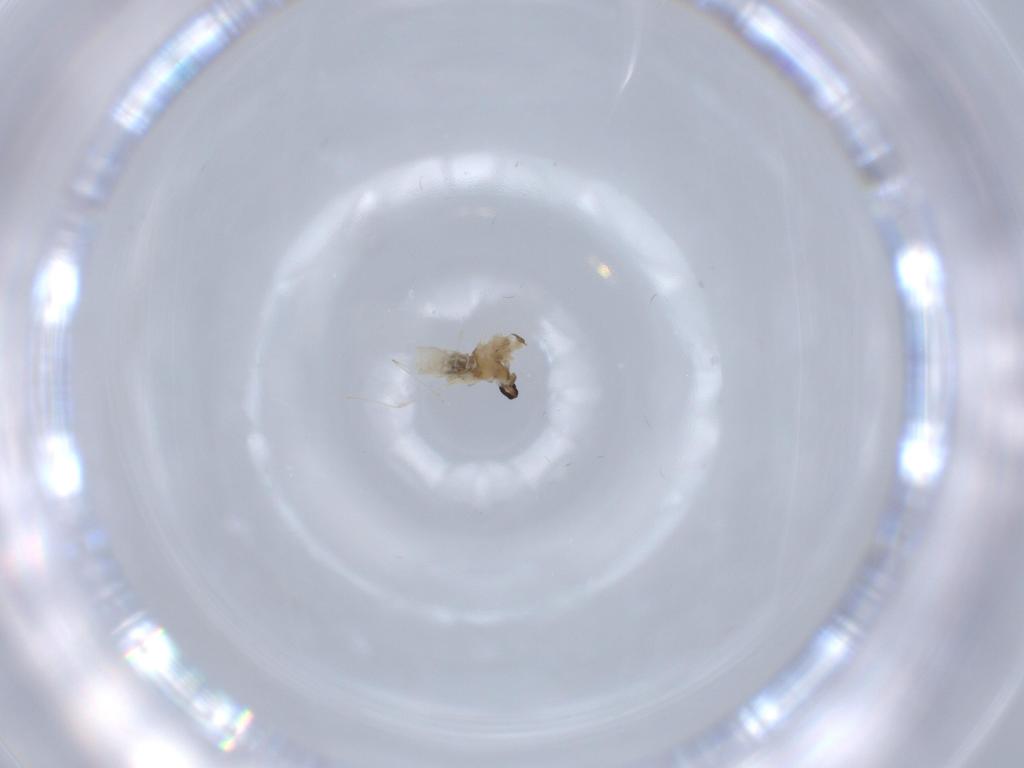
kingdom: Animalia
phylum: Arthropoda
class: Insecta
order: Diptera
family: Cecidomyiidae
